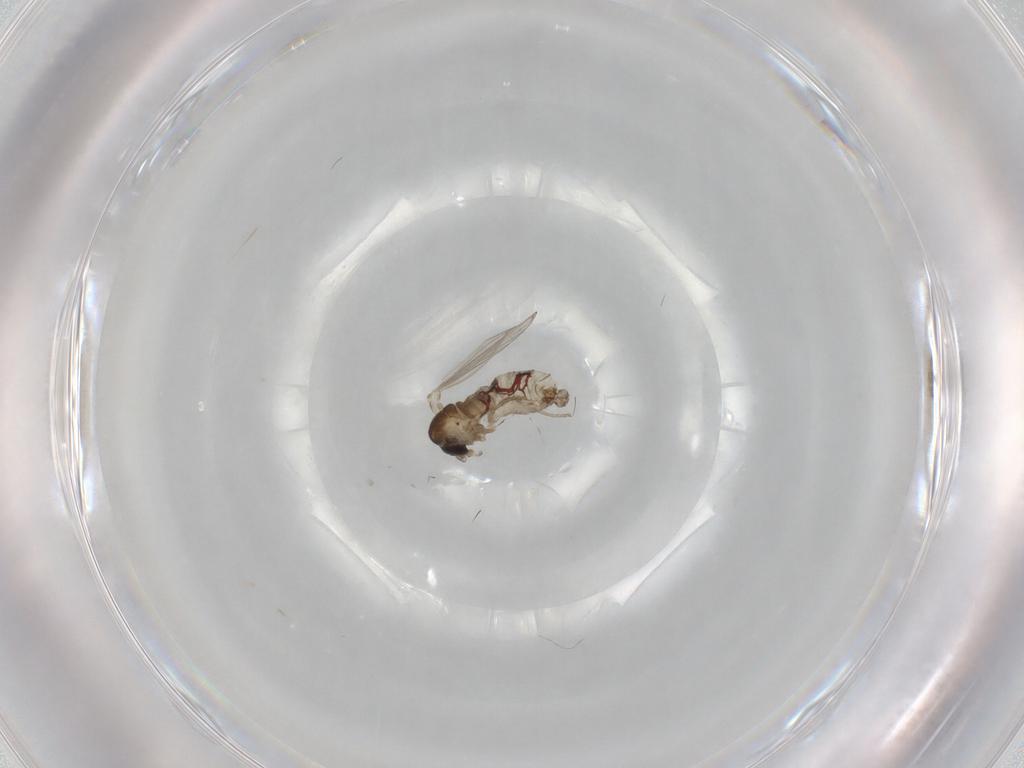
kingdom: Animalia
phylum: Arthropoda
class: Insecta
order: Diptera
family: Psychodidae
